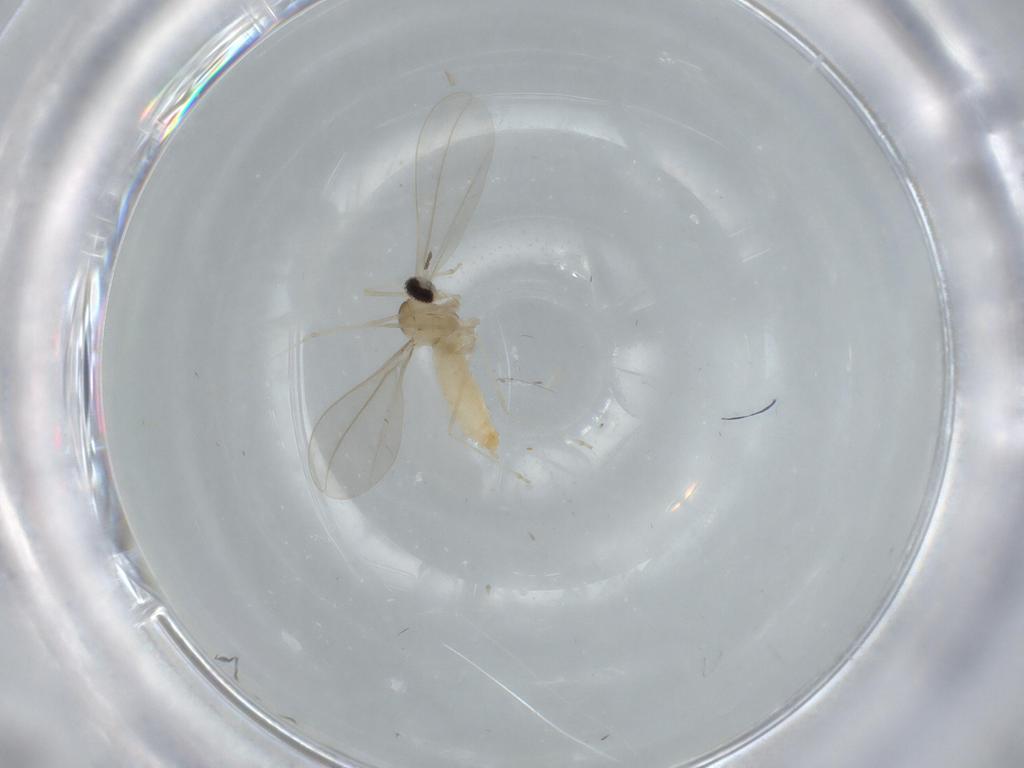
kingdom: Animalia
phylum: Arthropoda
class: Insecta
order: Diptera
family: Cecidomyiidae
